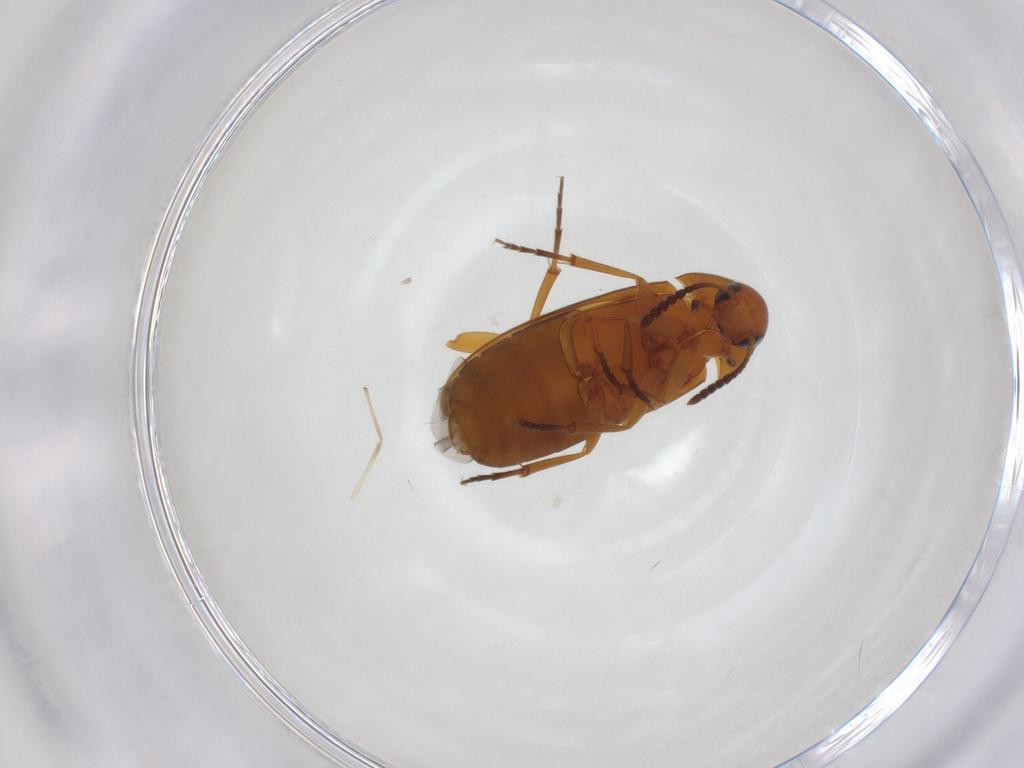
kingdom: Animalia
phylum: Arthropoda
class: Insecta
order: Coleoptera
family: Scraptiidae
